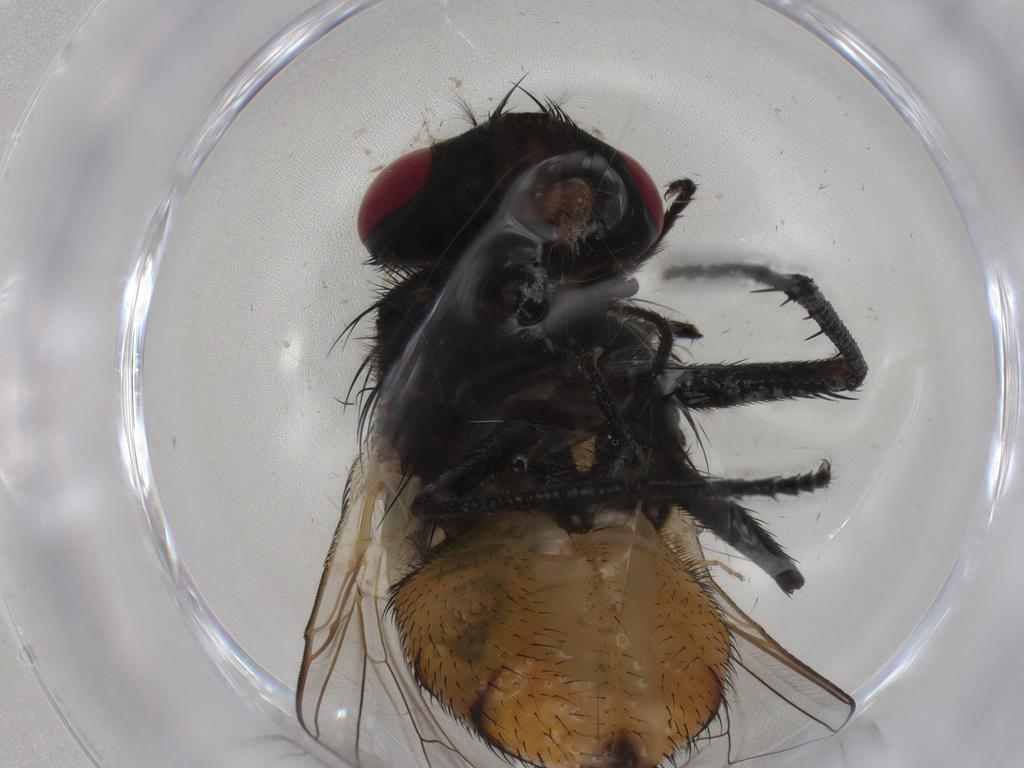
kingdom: Animalia
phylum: Arthropoda
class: Insecta
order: Diptera
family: Muscidae
